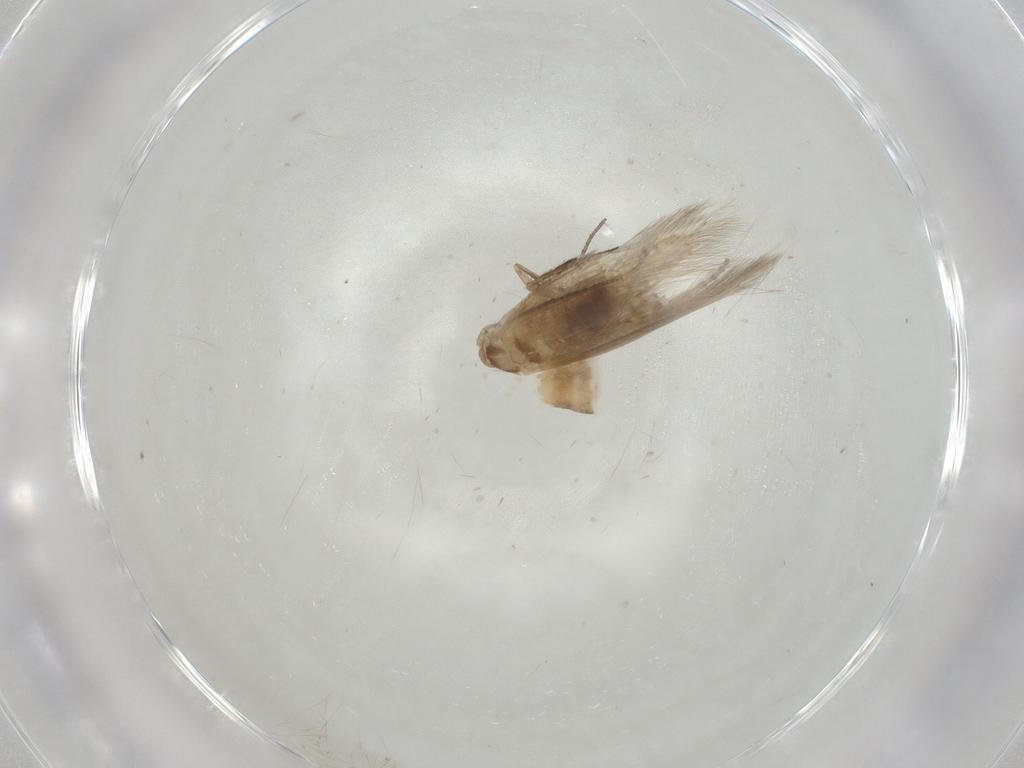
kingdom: Animalia
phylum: Arthropoda
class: Insecta
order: Lepidoptera
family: Bucculatricidae
